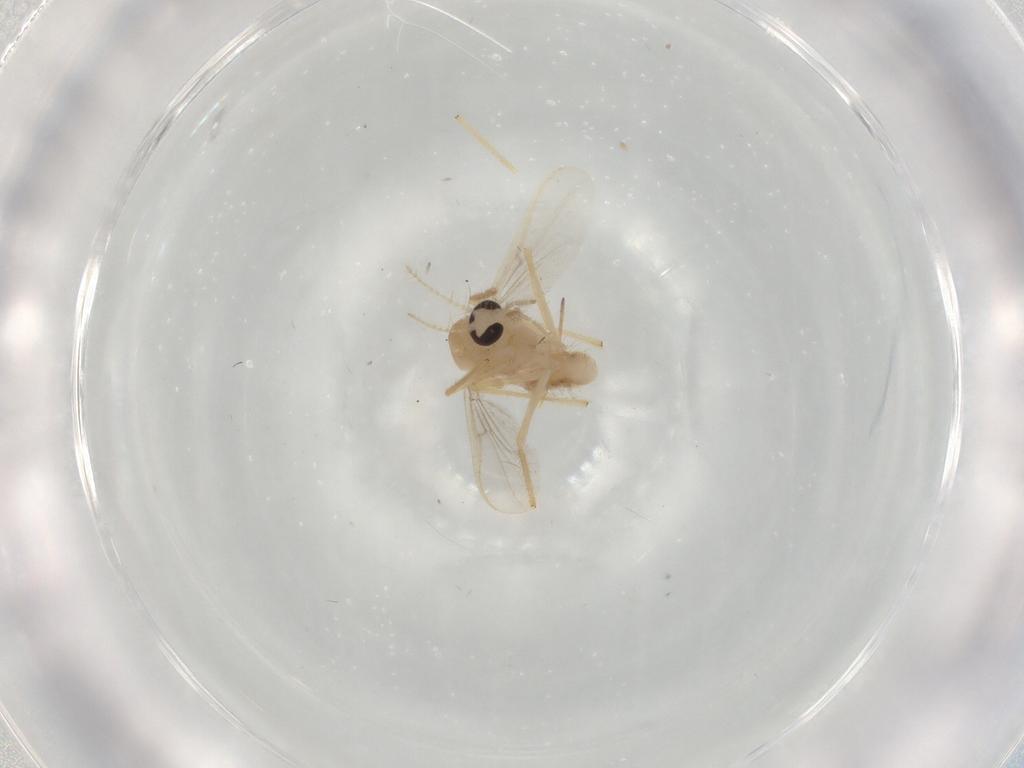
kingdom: Animalia
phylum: Arthropoda
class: Insecta
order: Diptera
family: Chironomidae
